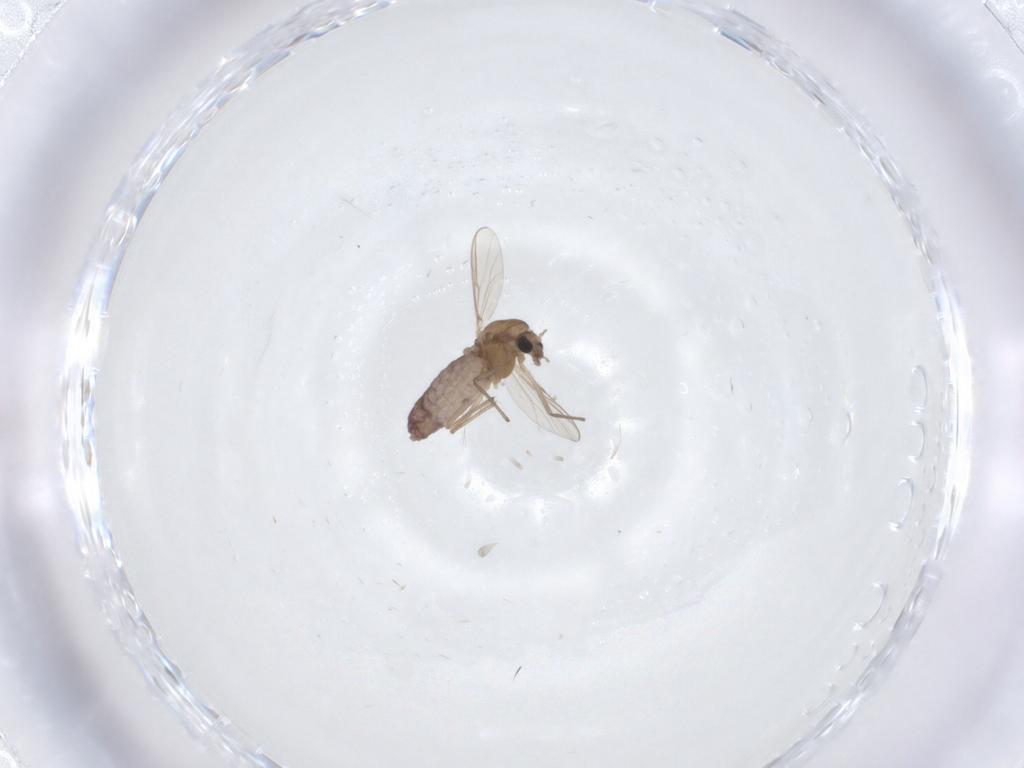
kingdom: Animalia
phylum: Arthropoda
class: Insecta
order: Diptera
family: Chironomidae
